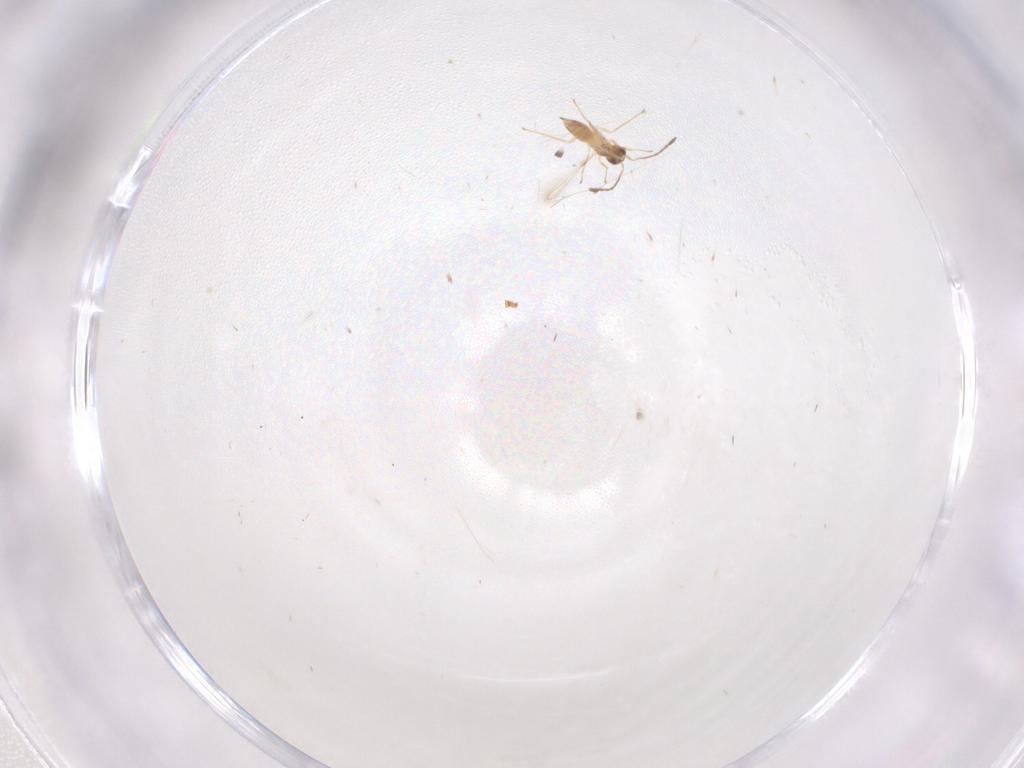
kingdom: Animalia
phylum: Arthropoda
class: Insecta
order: Hymenoptera
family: Mymaridae
